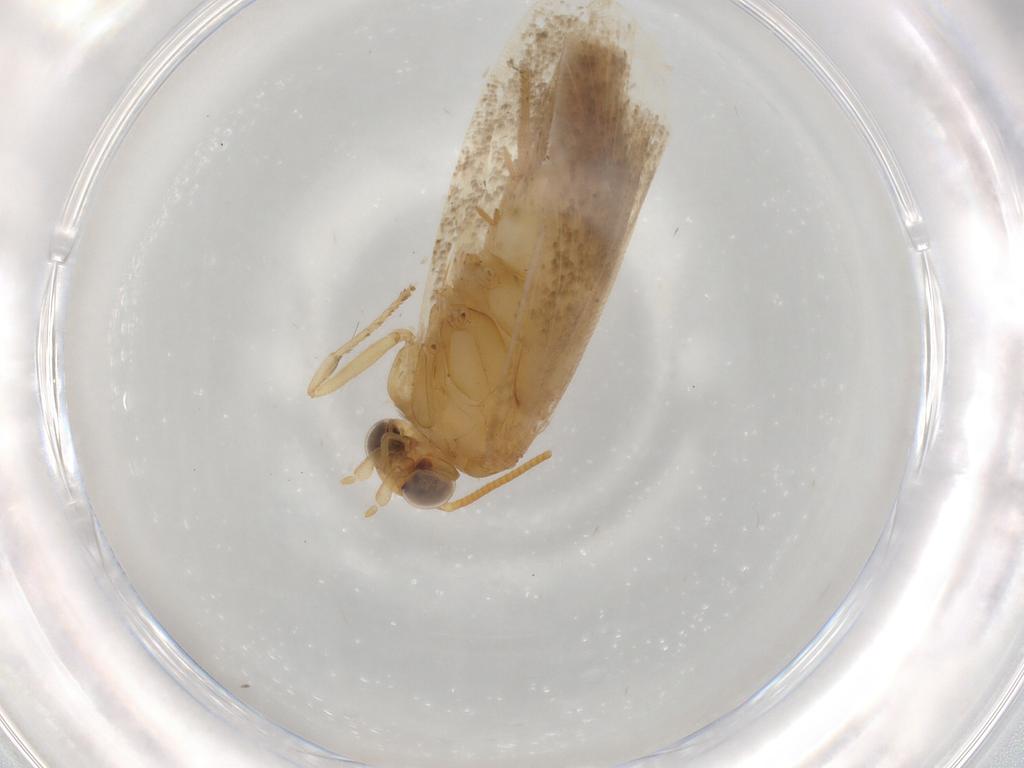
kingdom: Animalia
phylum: Arthropoda
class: Insecta
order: Lepidoptera
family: Tortricidae
